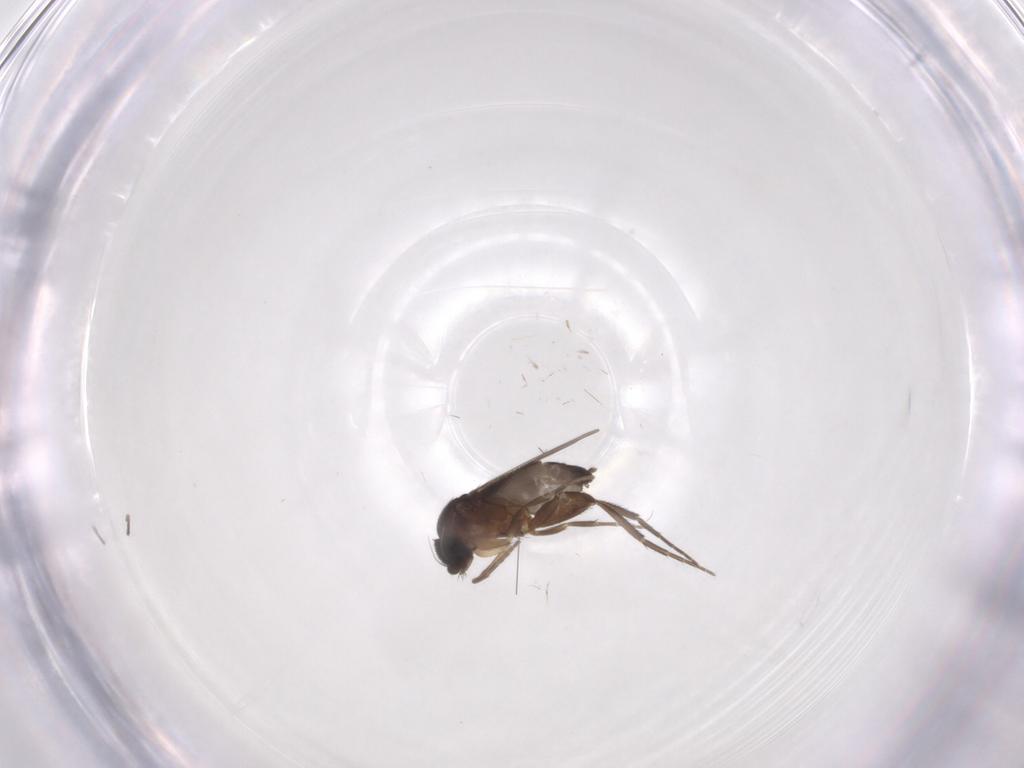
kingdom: Animalia
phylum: Arthropoda
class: Insecta
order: Diptera
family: Phoridae
